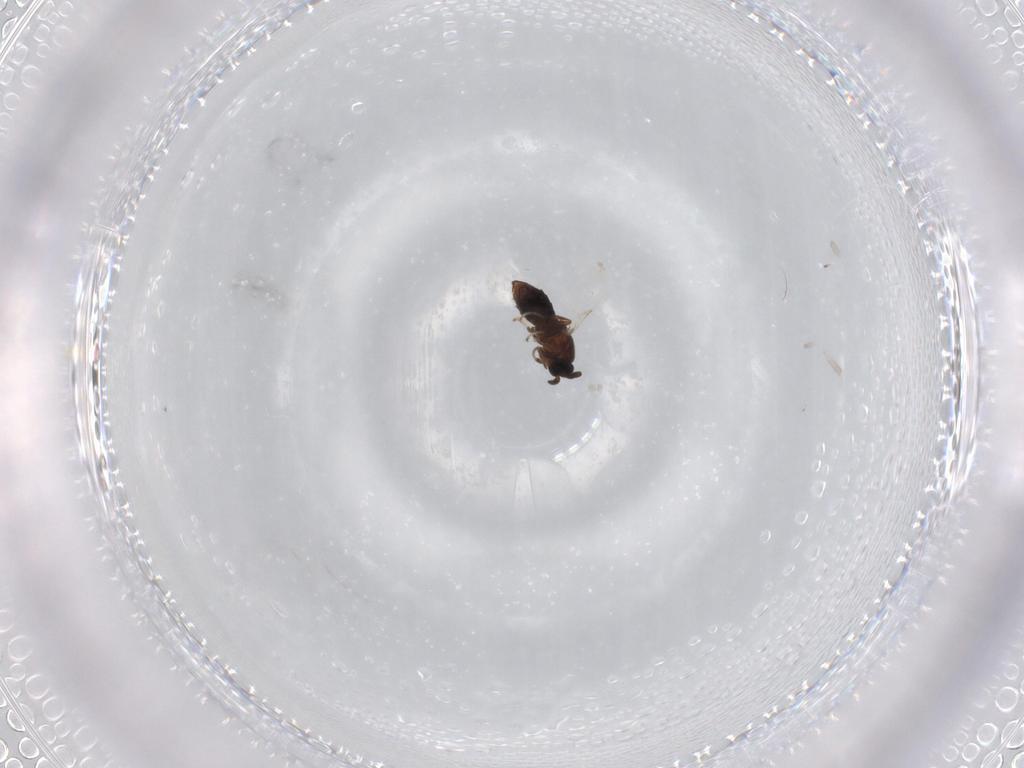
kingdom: Animalia
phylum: Arthropoda
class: Insecta
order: Diptera
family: Scatopsidae
